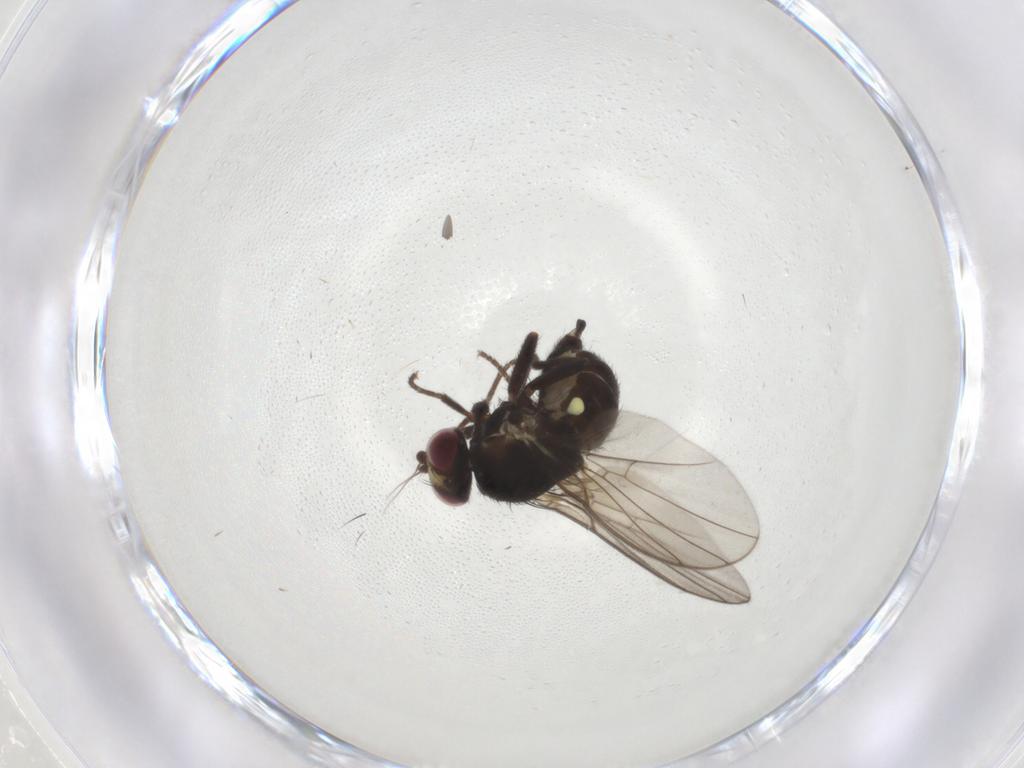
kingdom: Animalia
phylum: Arthropoda
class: Insecta
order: Diptera
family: Agromyzidae
